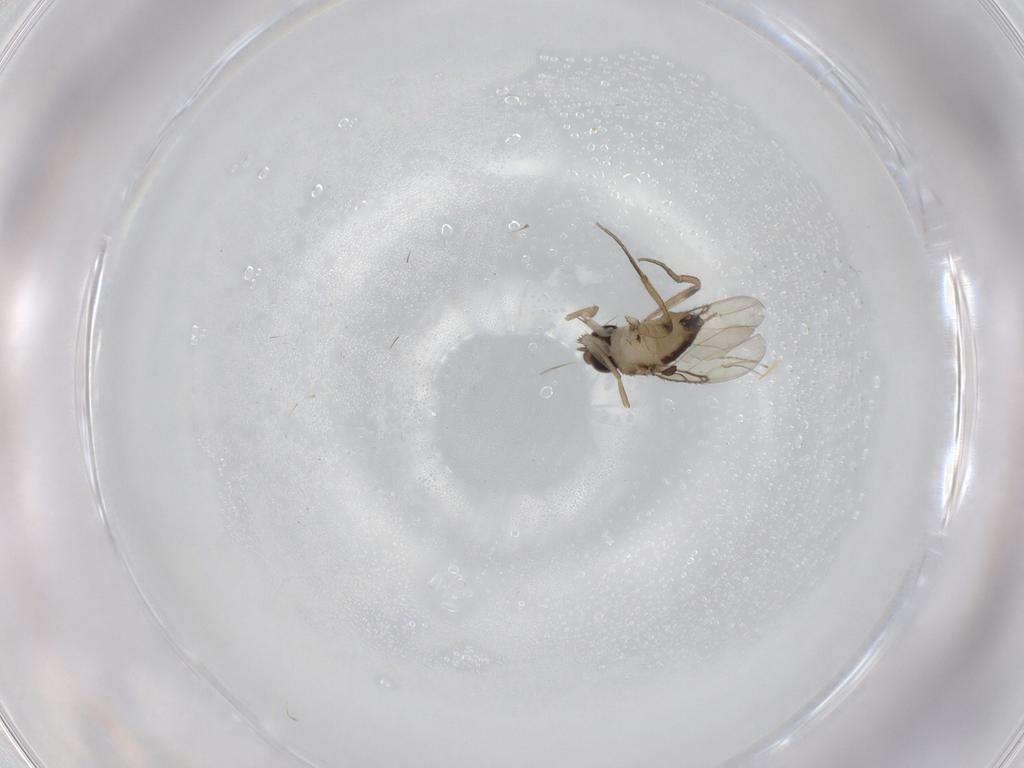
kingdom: Animalia
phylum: Arthropoda
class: Insecta
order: Diptera
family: Phoridae
